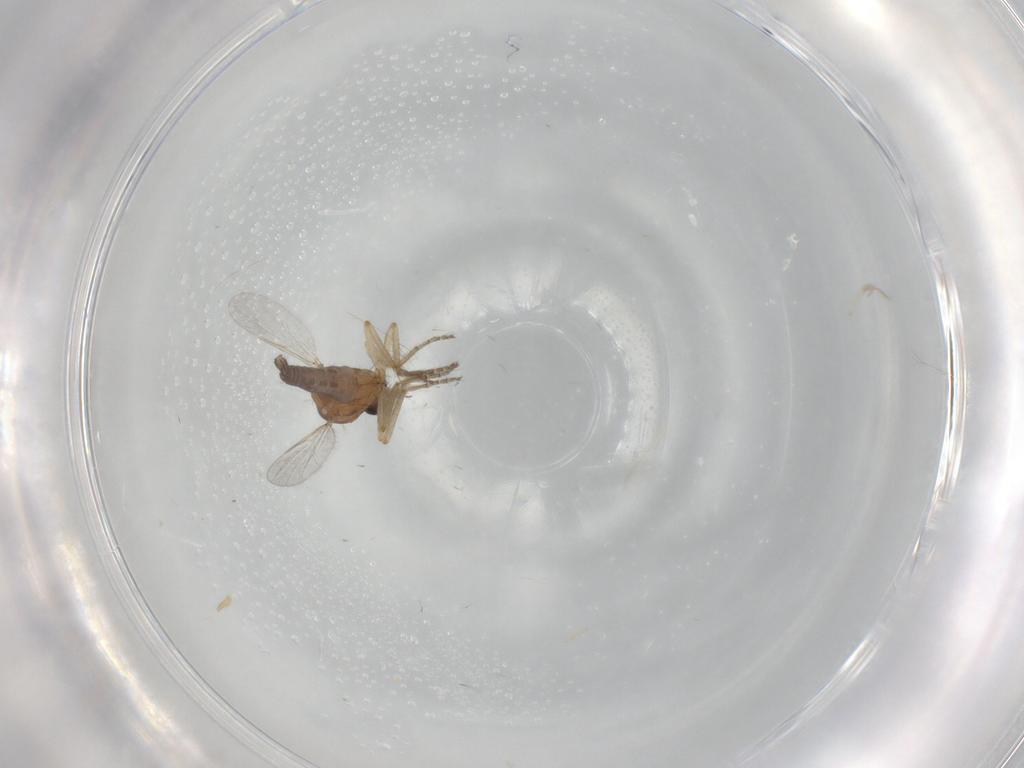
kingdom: Animalia
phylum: Arthropoda
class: Insecta
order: Diptera
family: Ceratopogonidae
